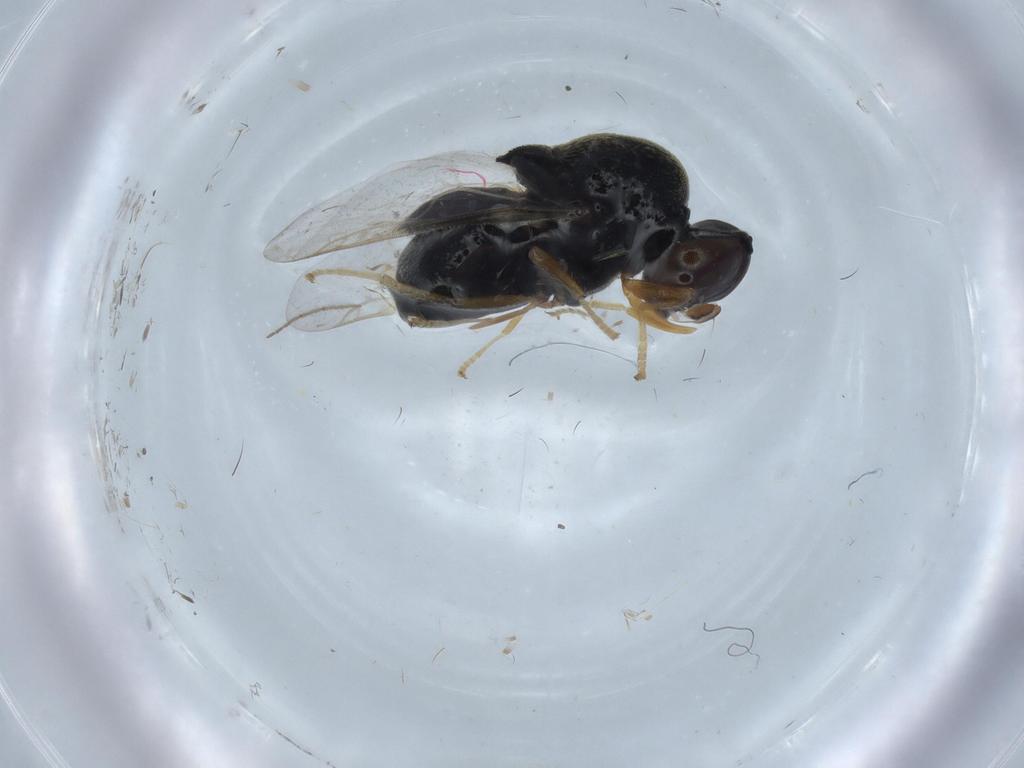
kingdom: Animalia
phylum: Arthropoda
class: Insecta
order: Diptera
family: Stratiomyidae
